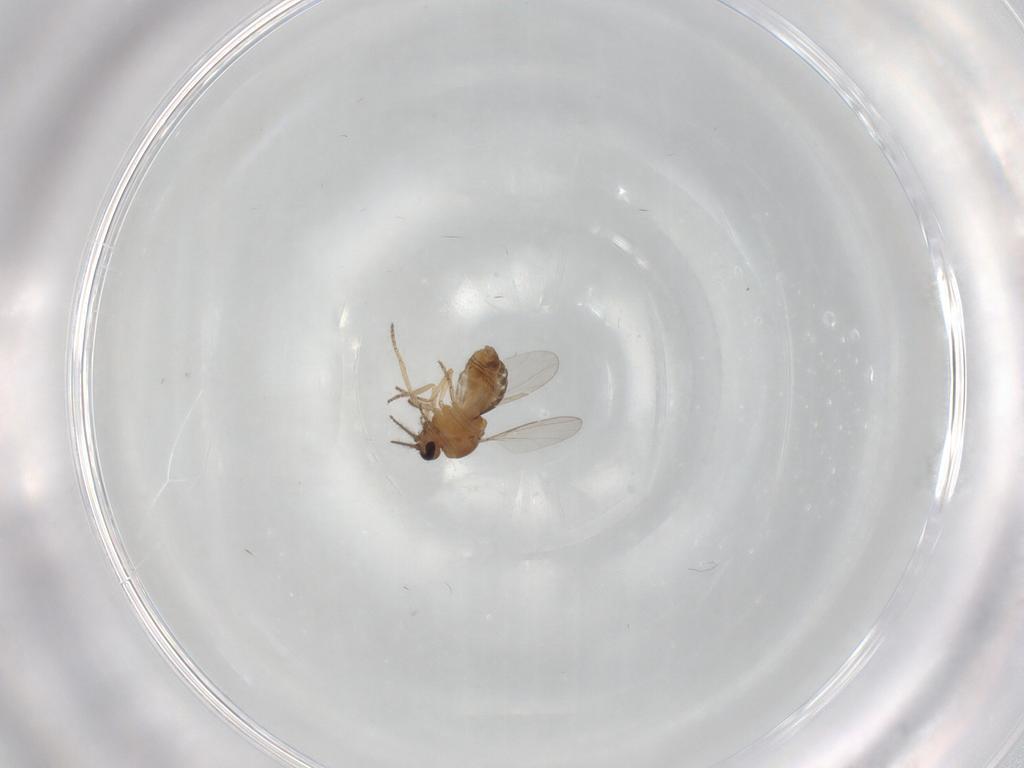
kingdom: Animalia
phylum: Arthropoda
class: Insecta
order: Diptera
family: Ceratopogonidae
